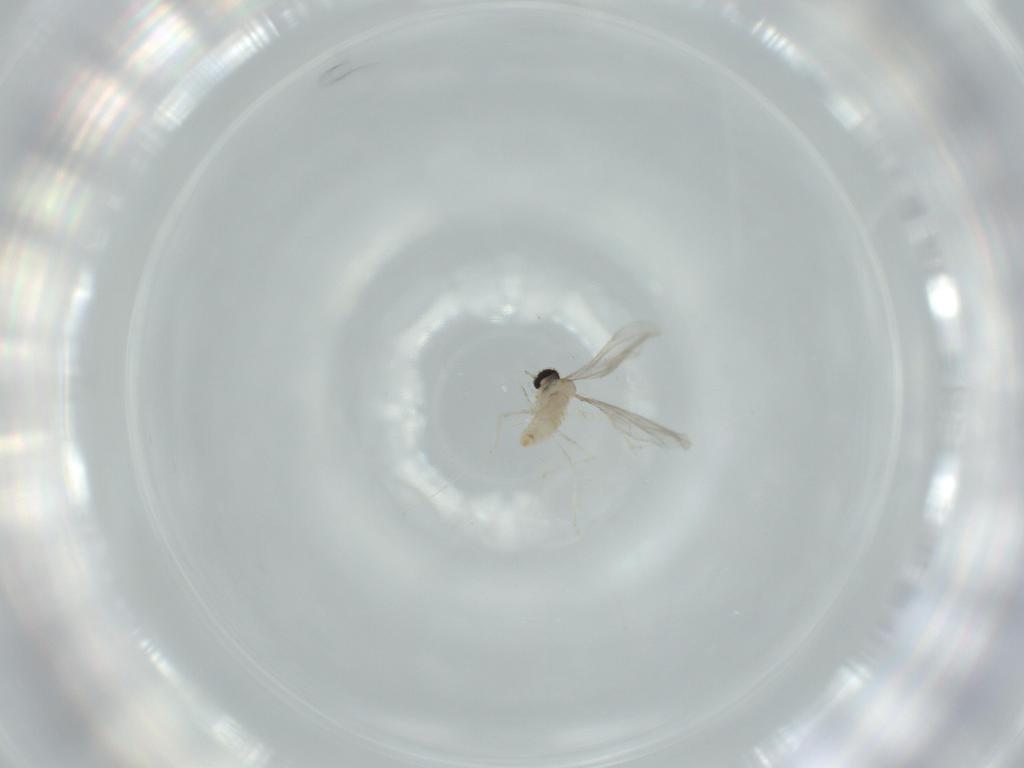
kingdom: Animalia
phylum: Arthropoda
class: Insecta
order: Diptera
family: Cecidomyiidae
